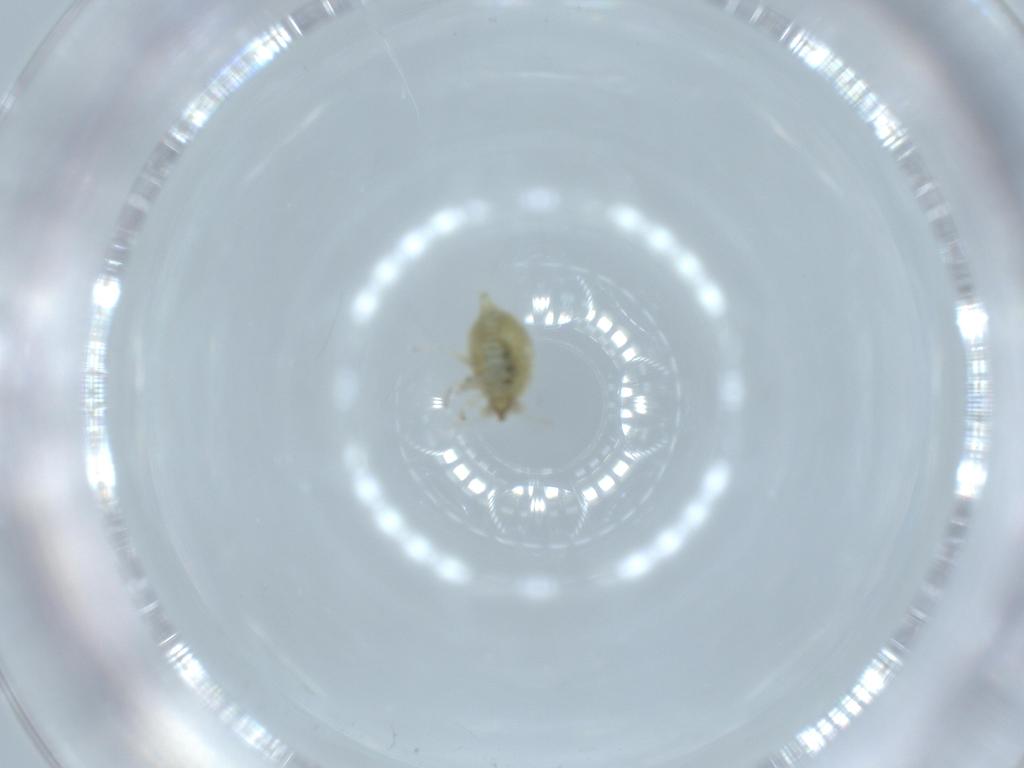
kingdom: Animalia
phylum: Arthropoda
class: Insecta
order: Neuroptera
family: Coniopterygidae
